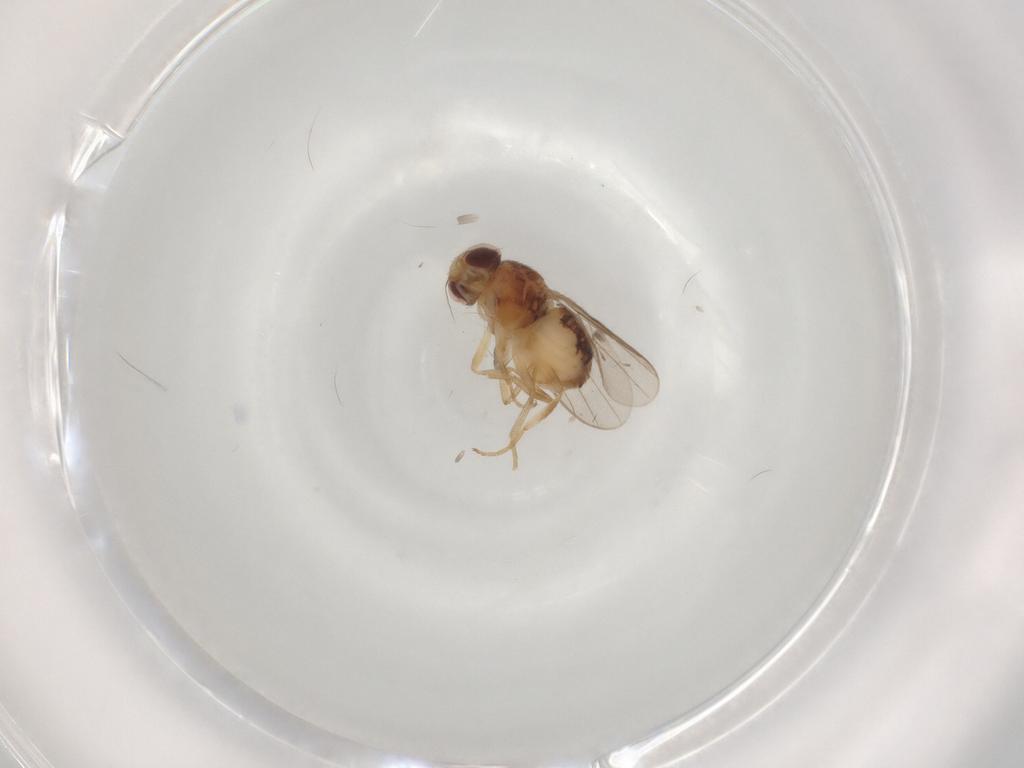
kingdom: Animalia
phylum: Arthropoda
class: Insecta
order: Diptera
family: Chloropidae
